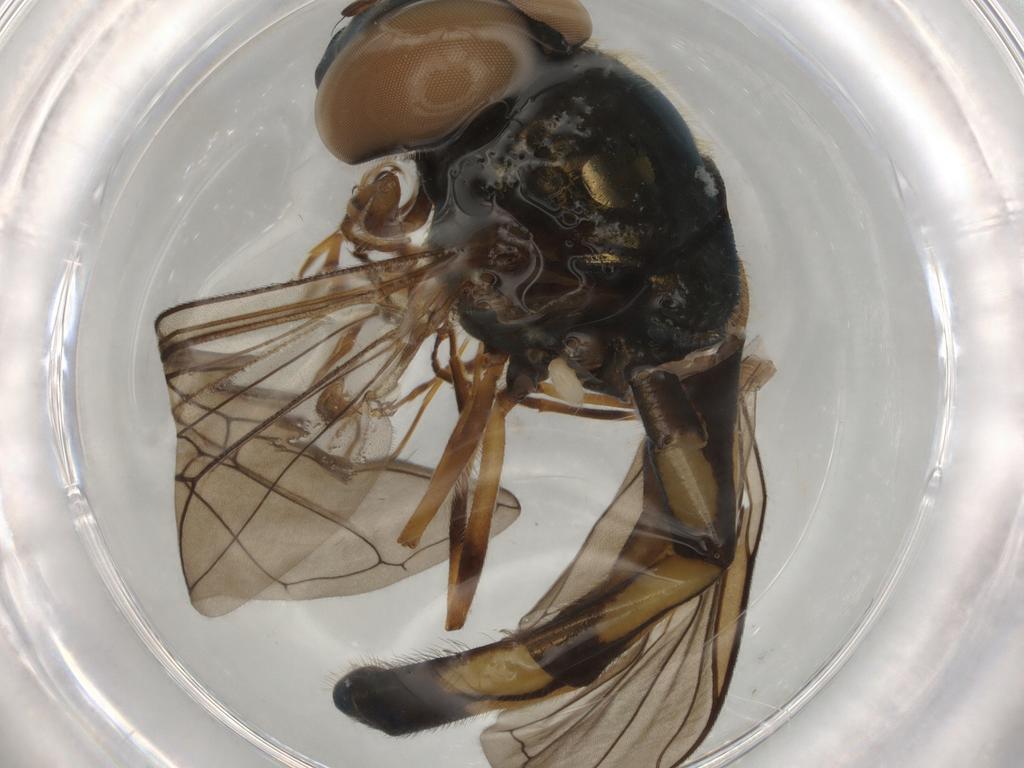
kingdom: Animalia
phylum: Arthropoda
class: Insecta
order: Diptera
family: Syrphidae
